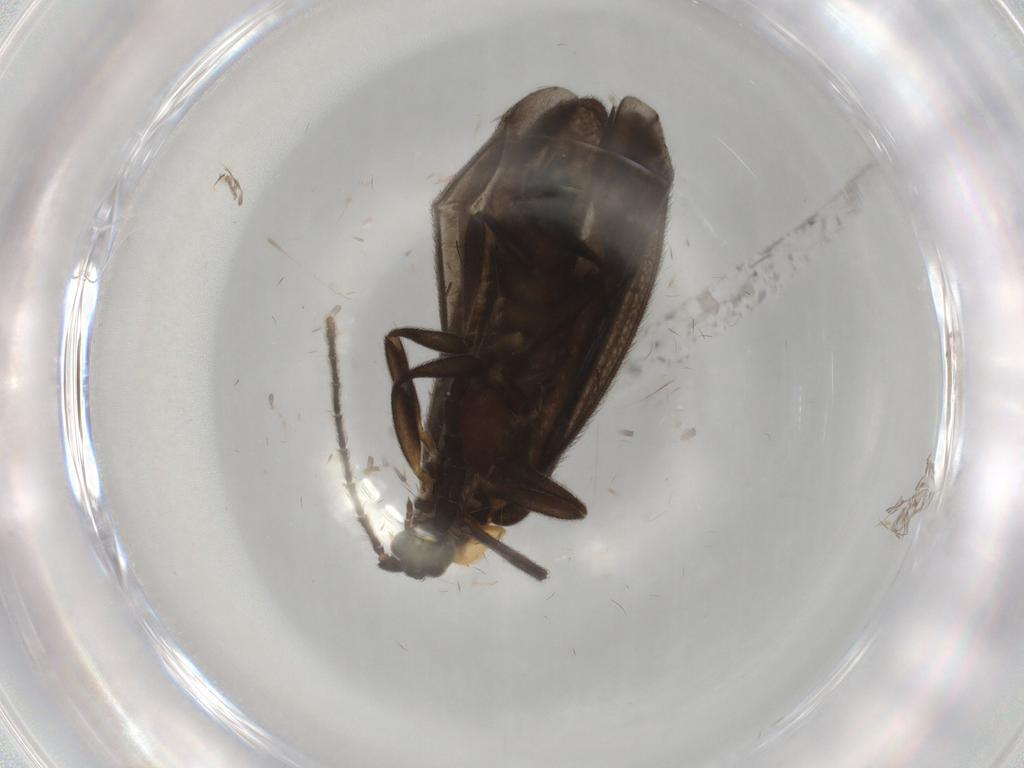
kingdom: Animalia
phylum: Arthropoda
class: Insecta
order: Coleoptera
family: Lycidae
